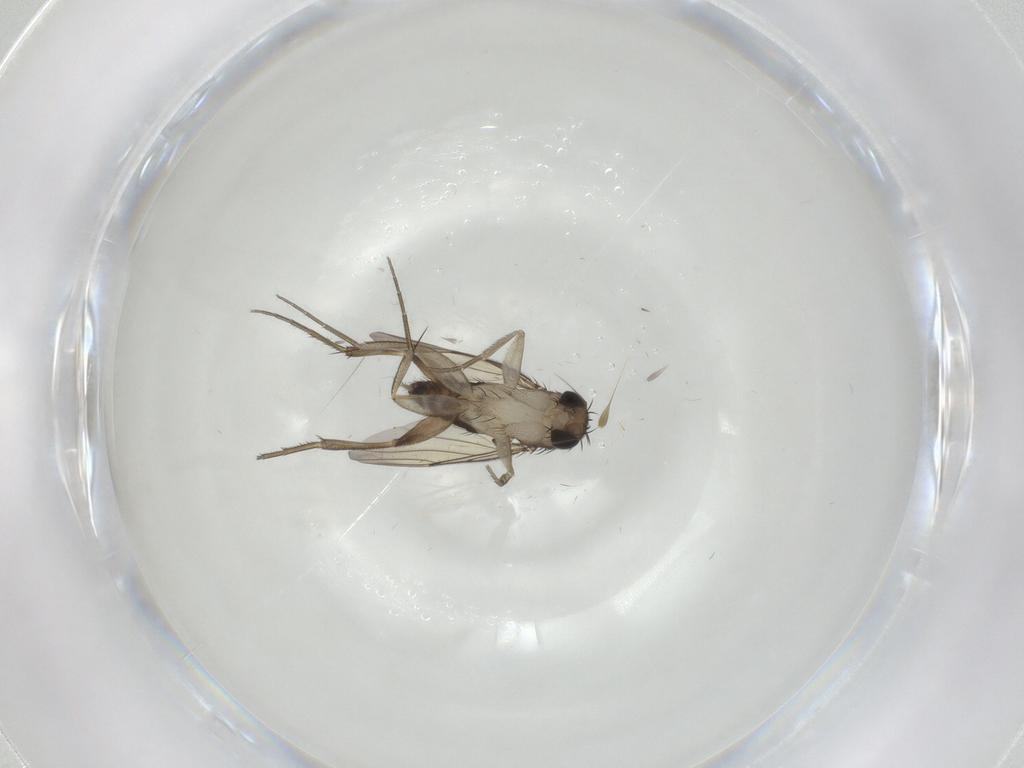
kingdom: Animalia
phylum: Arthropoda
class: Insecta
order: Diptera
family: Phoridae
